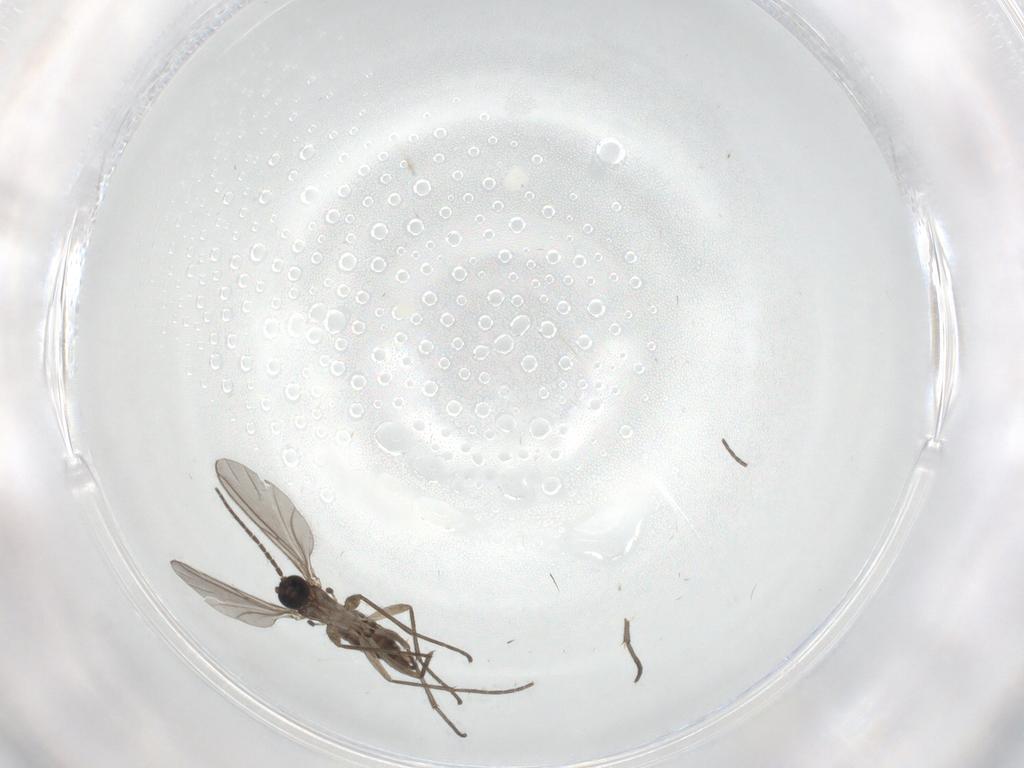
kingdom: Animalia
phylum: Arthropoda
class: Insecta
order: Diptera
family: Sciaridae
